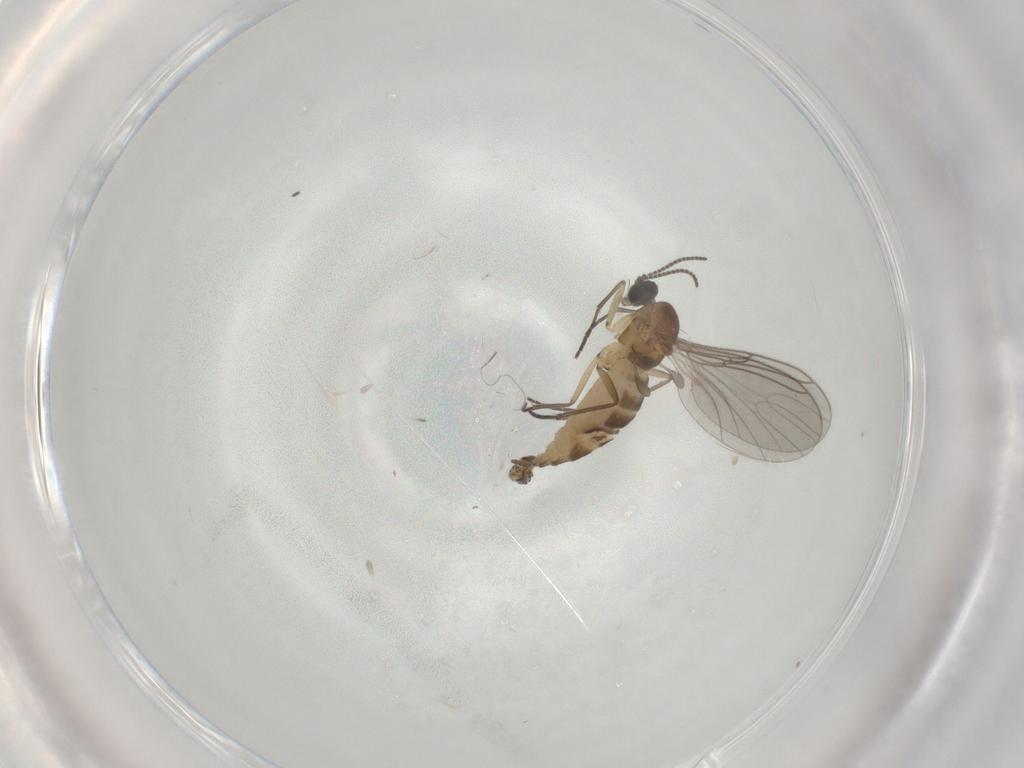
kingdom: Animalia
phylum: Arthropoda
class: Insecta
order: Diptera
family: Sciaridae
